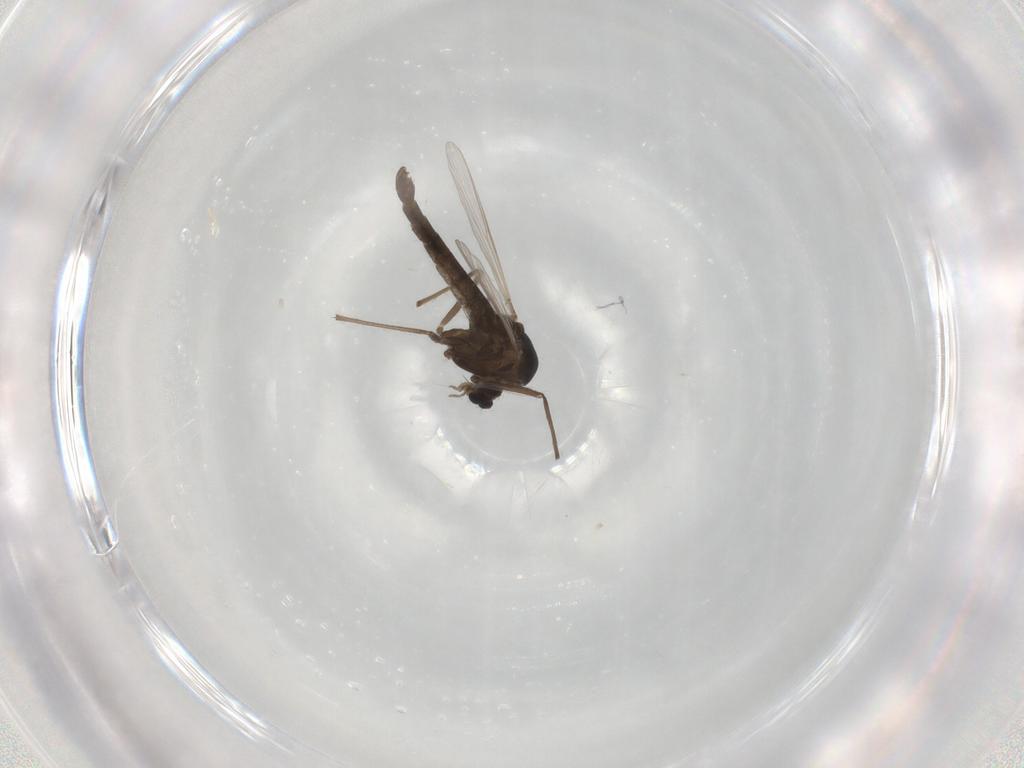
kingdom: Animalia
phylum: Arthropoda
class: Insecta
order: Diptera
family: Chironomidae
